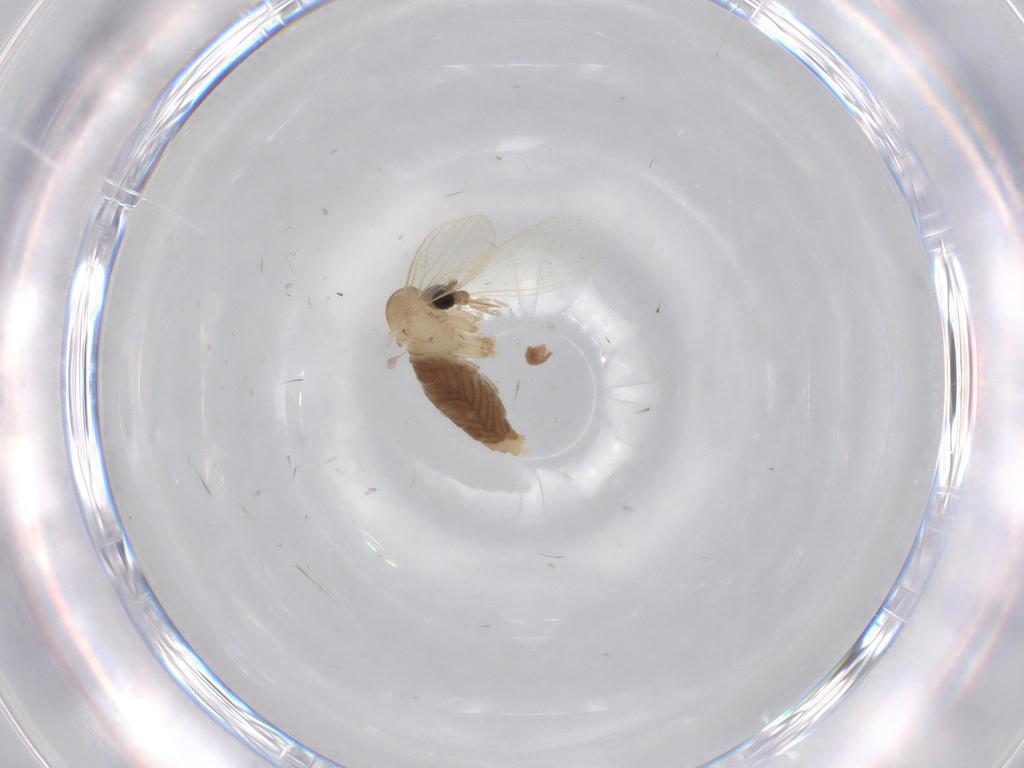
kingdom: Animalia
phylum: Arthropoda
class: Insecta
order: Diptera
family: Psychodidae
